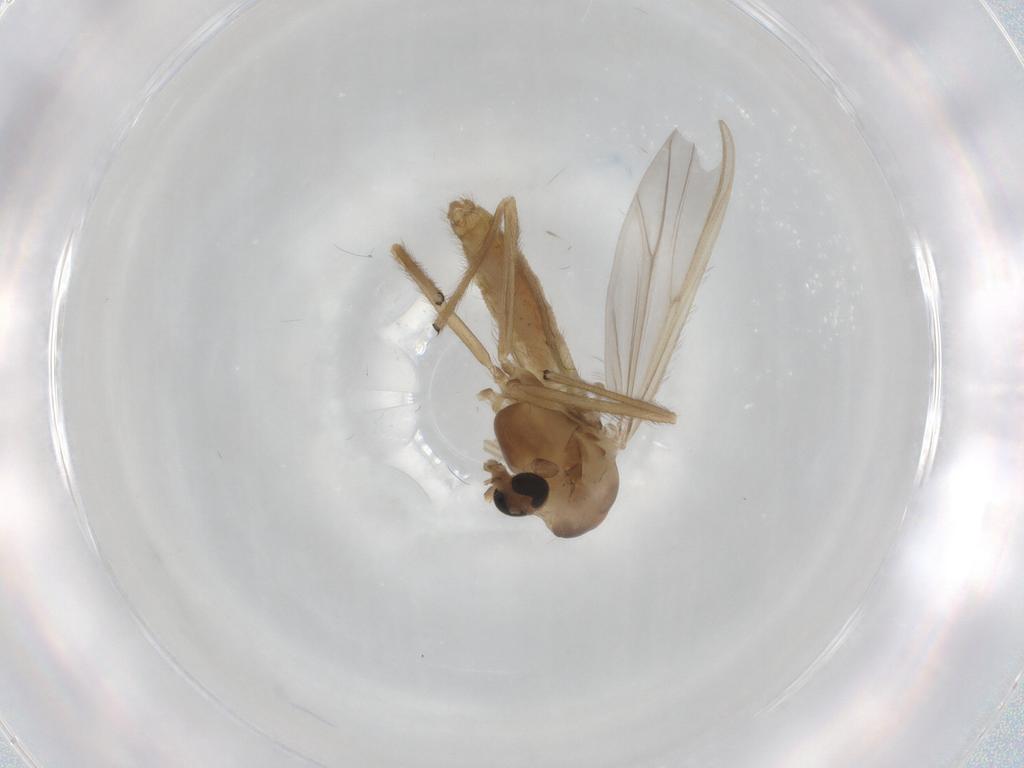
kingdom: Animalia
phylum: Arthropoda
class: Insecta
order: Diptera
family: Chironomidae
